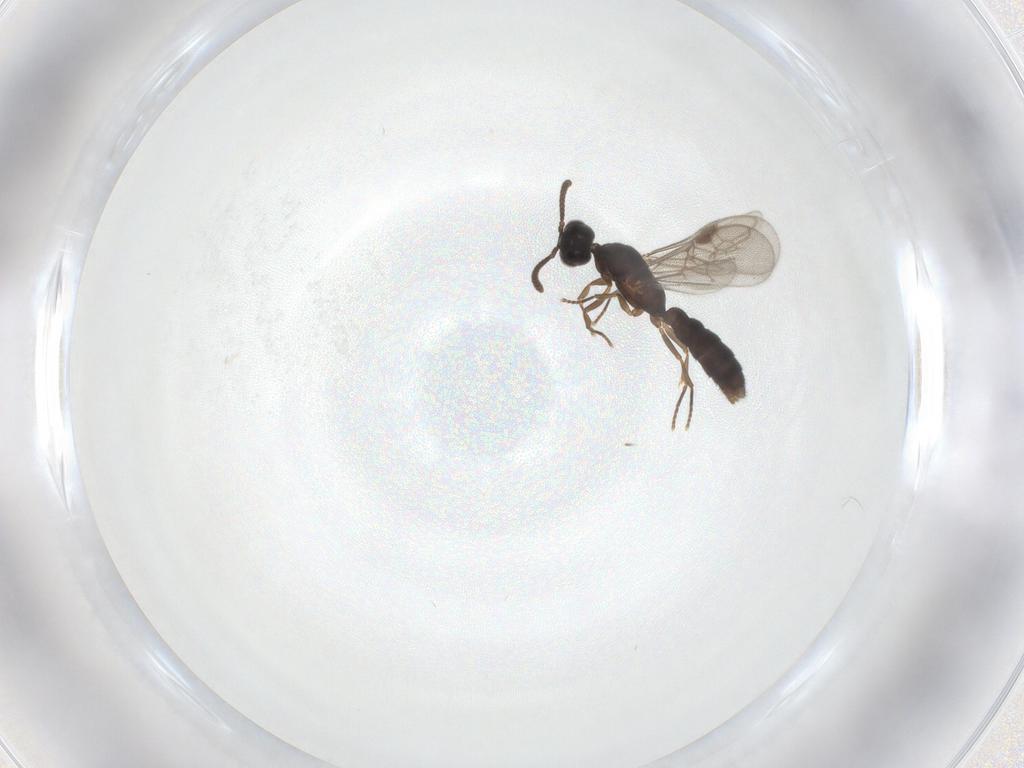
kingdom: Animalia
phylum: Arthropoda
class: Insecta
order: Hymenoptera
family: Formicidae
